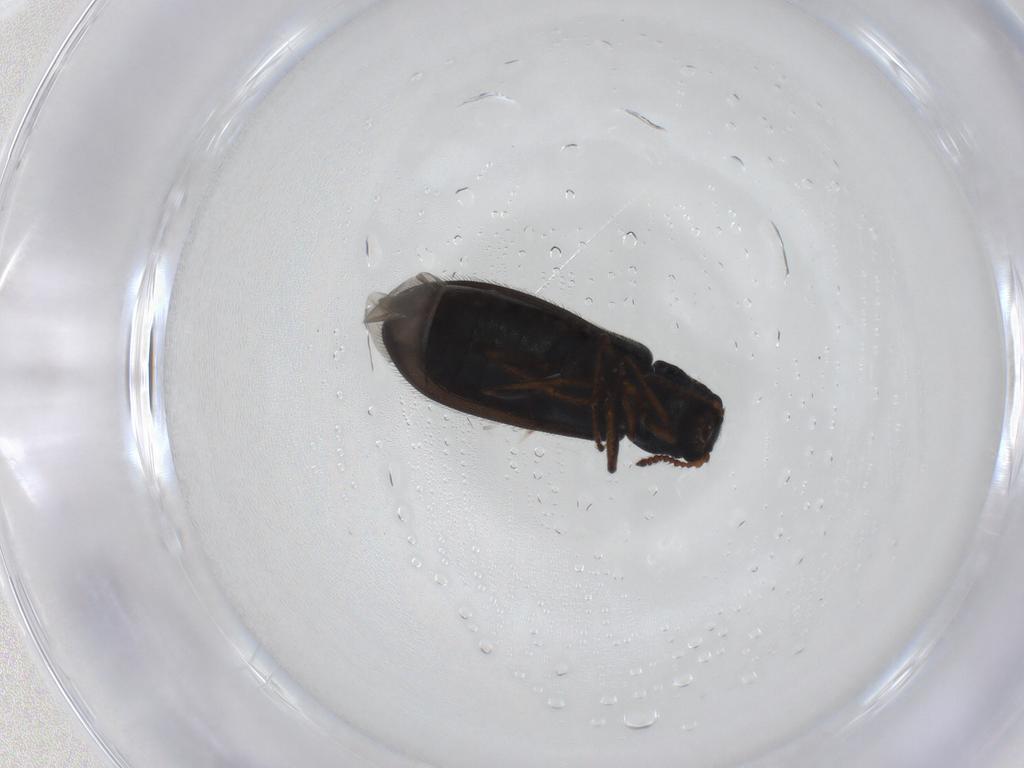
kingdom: Animalia
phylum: Arthropoda
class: Insecta
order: Coleoptera
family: Melyridae
